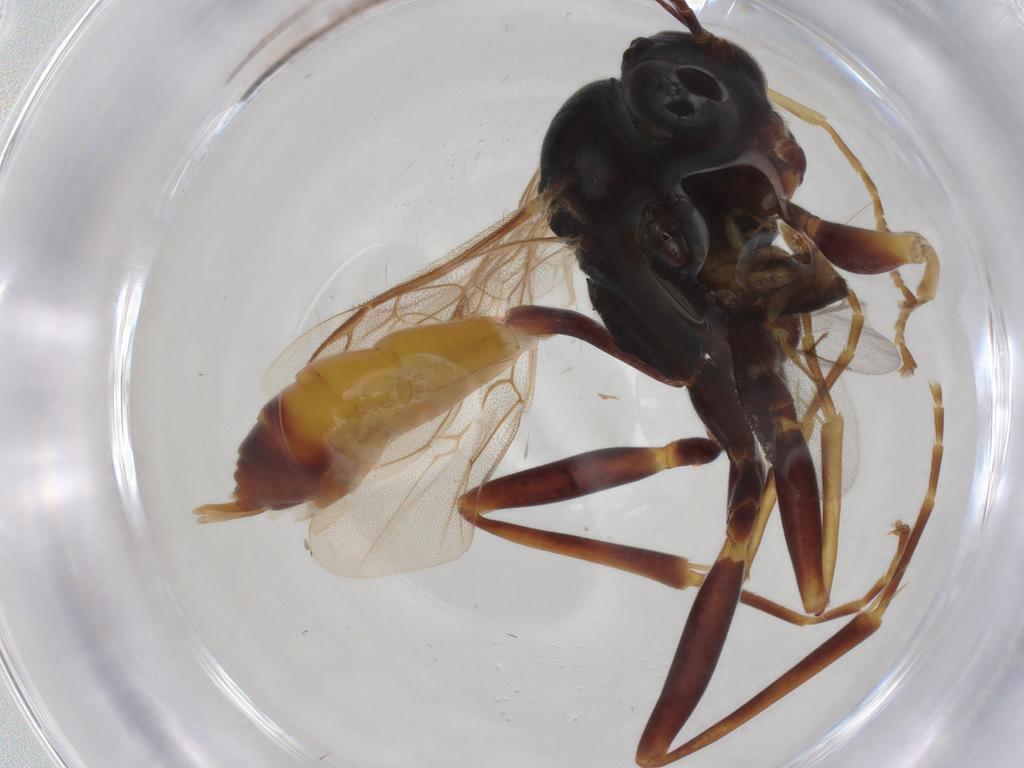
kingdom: Animalia
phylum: Arthropoda
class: Insecta
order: Hymenoptera
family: Ichneumonidae
